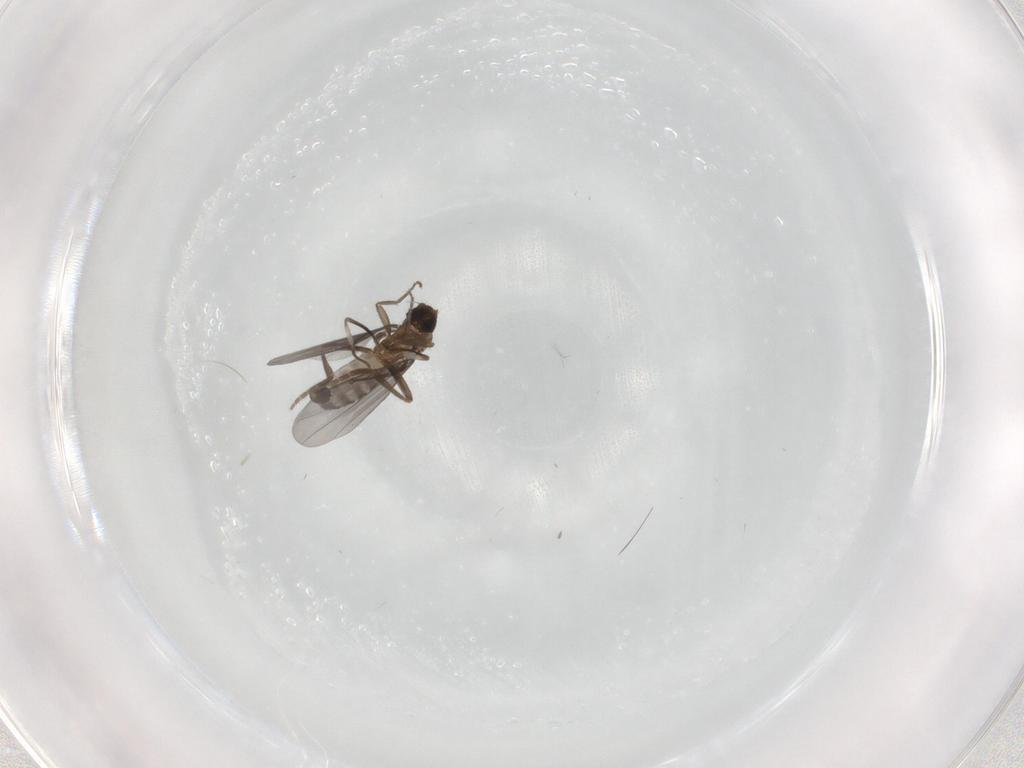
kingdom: Animalia
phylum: Arthropoda
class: Insecta
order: Diptera
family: Phoridae
